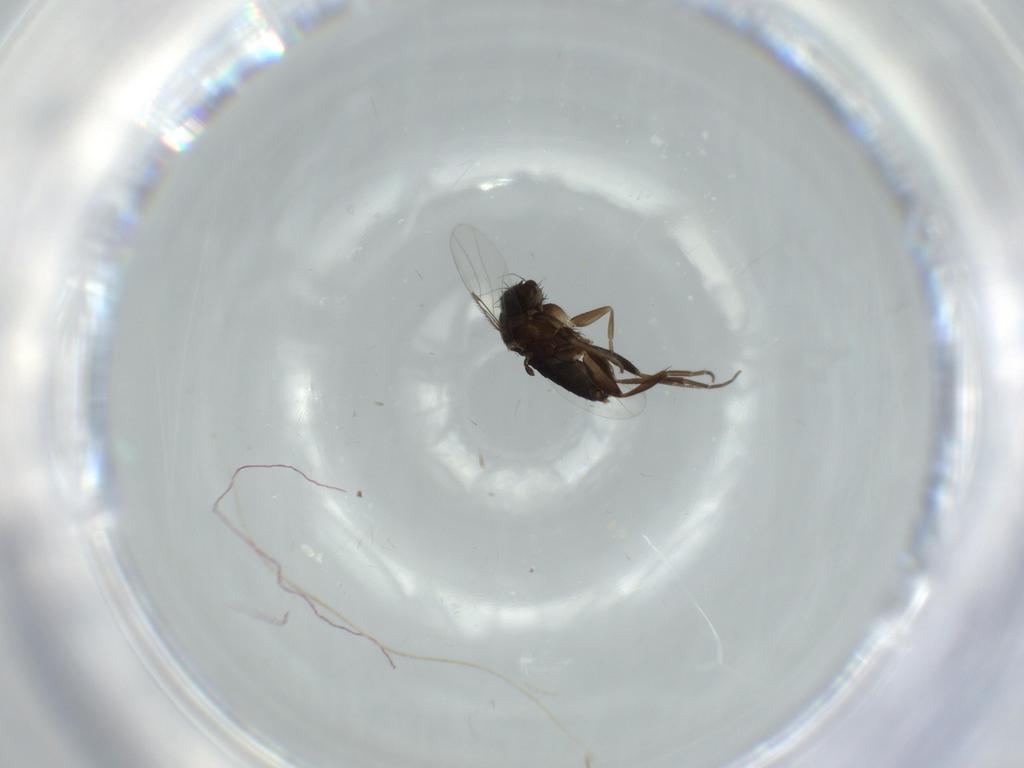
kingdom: Animalia
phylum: Arthropoda
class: Insecta
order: Diptera
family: Phoridae
